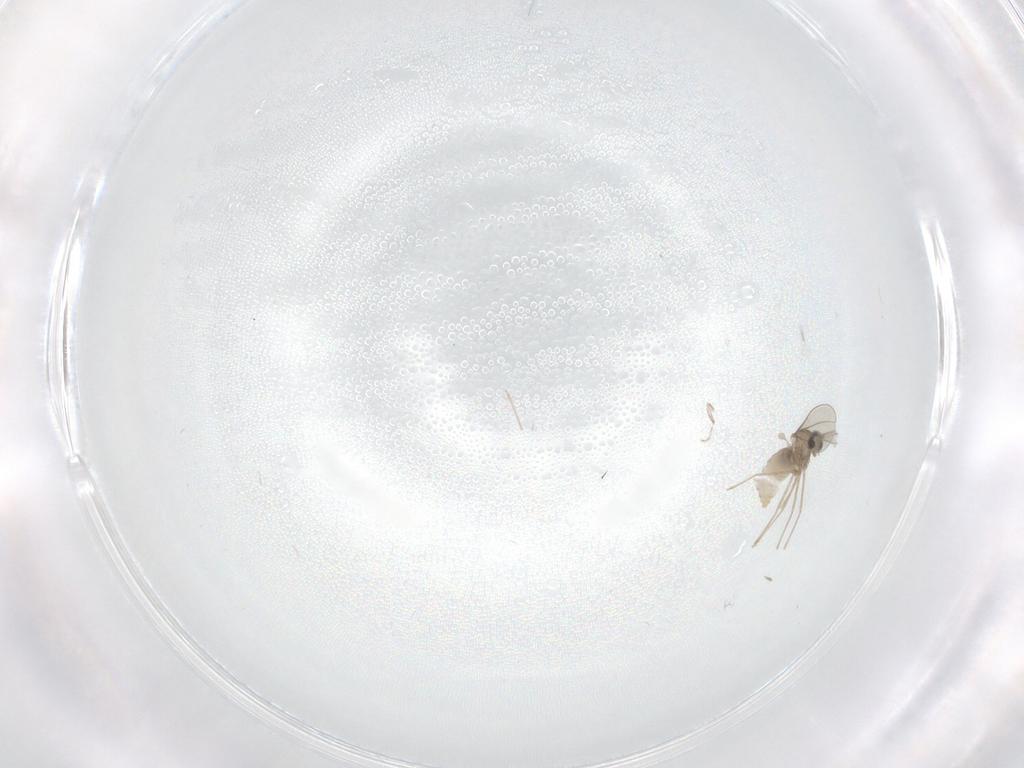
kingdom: Animalia
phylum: Arthropoda
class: Insecta
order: Diptera
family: Cecidomyiidae
